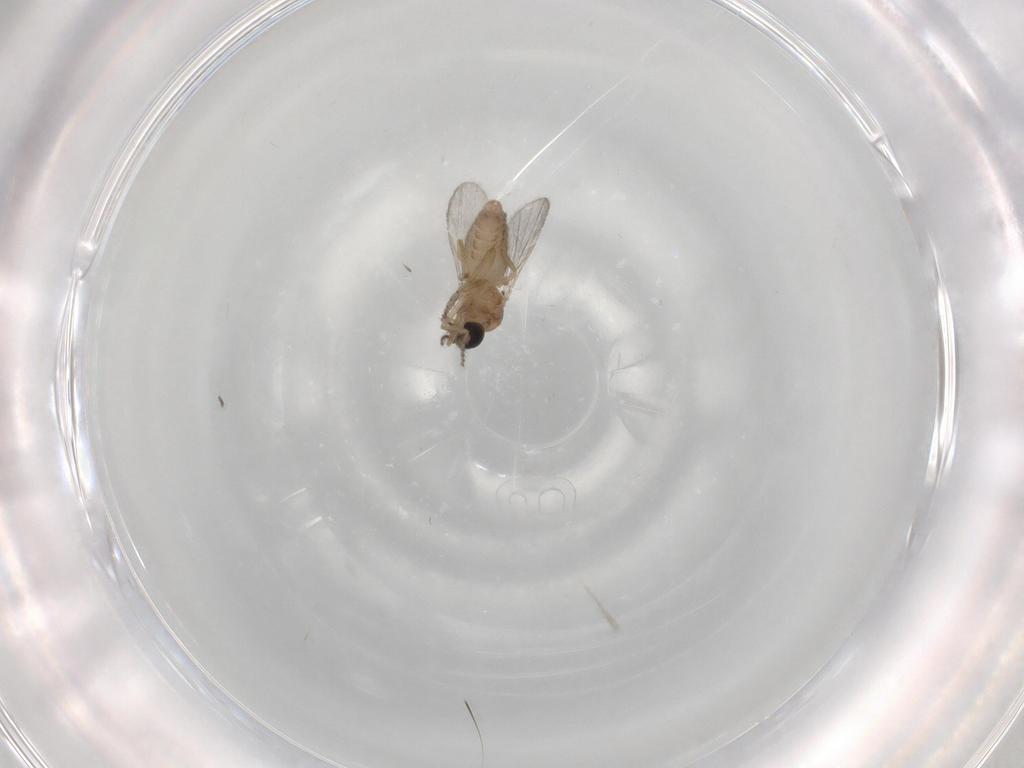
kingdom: Animalia
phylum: Arthropoda
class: Insecta
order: Diptera
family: Ceratopogonidae
